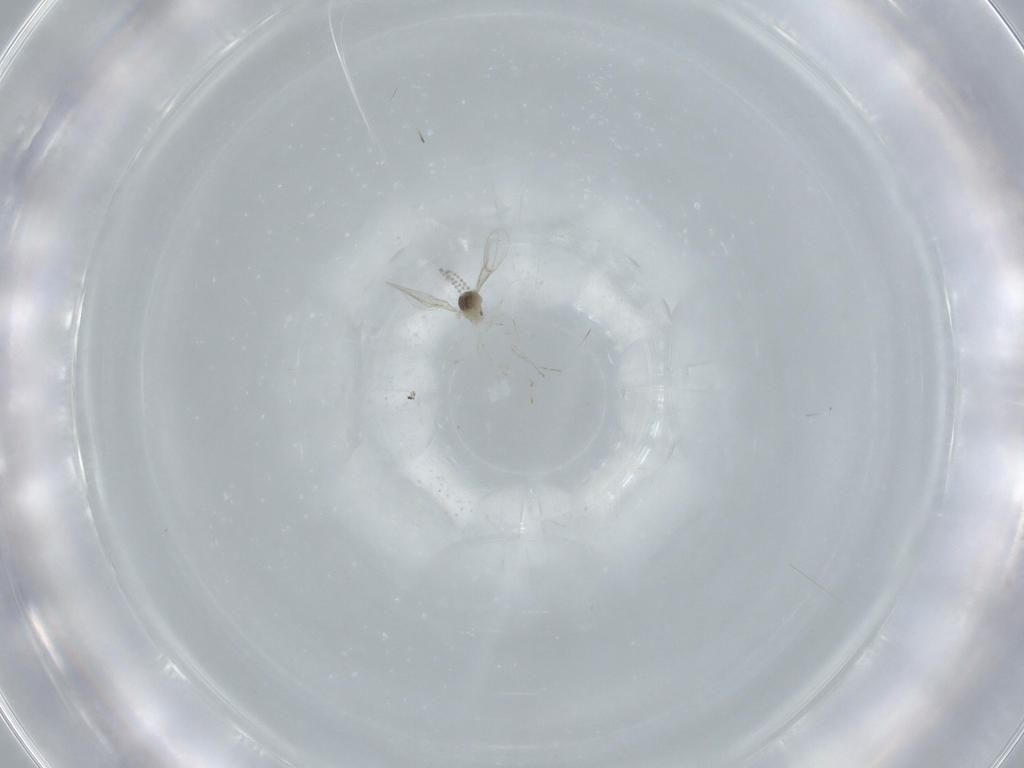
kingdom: Animalia
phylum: Arthropoda
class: Insecta
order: Diptera
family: Cecidomyiidae
